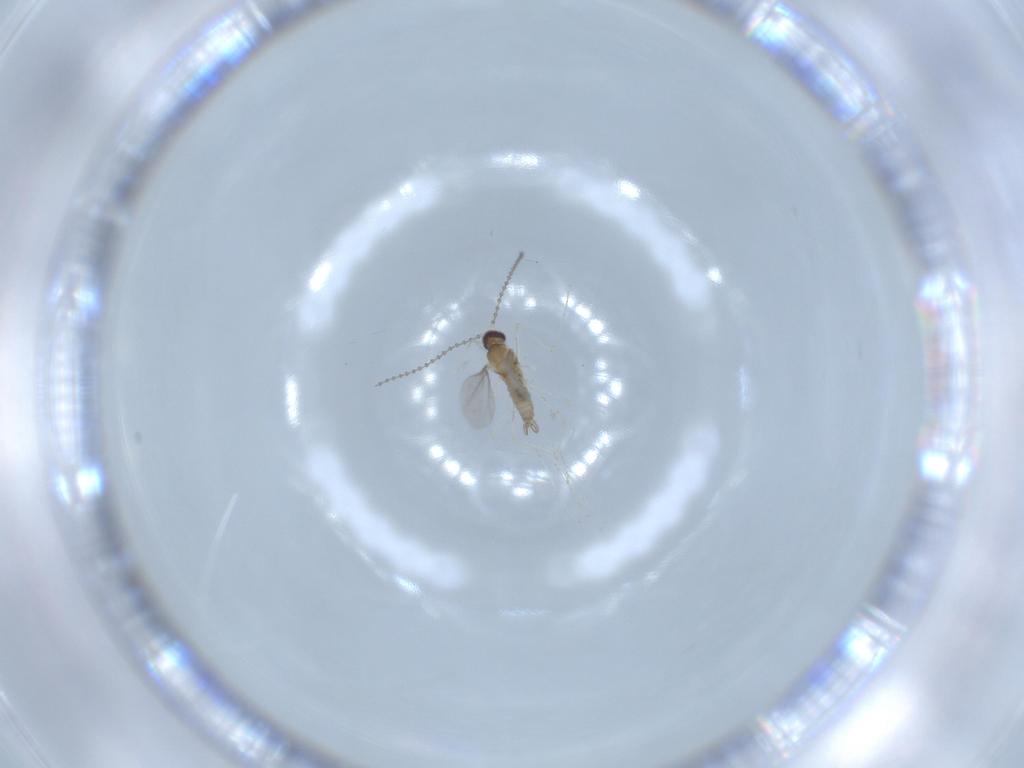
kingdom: Animalia
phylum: Arthropoda
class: Insecta
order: Diptera
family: Cecidomyiidae
